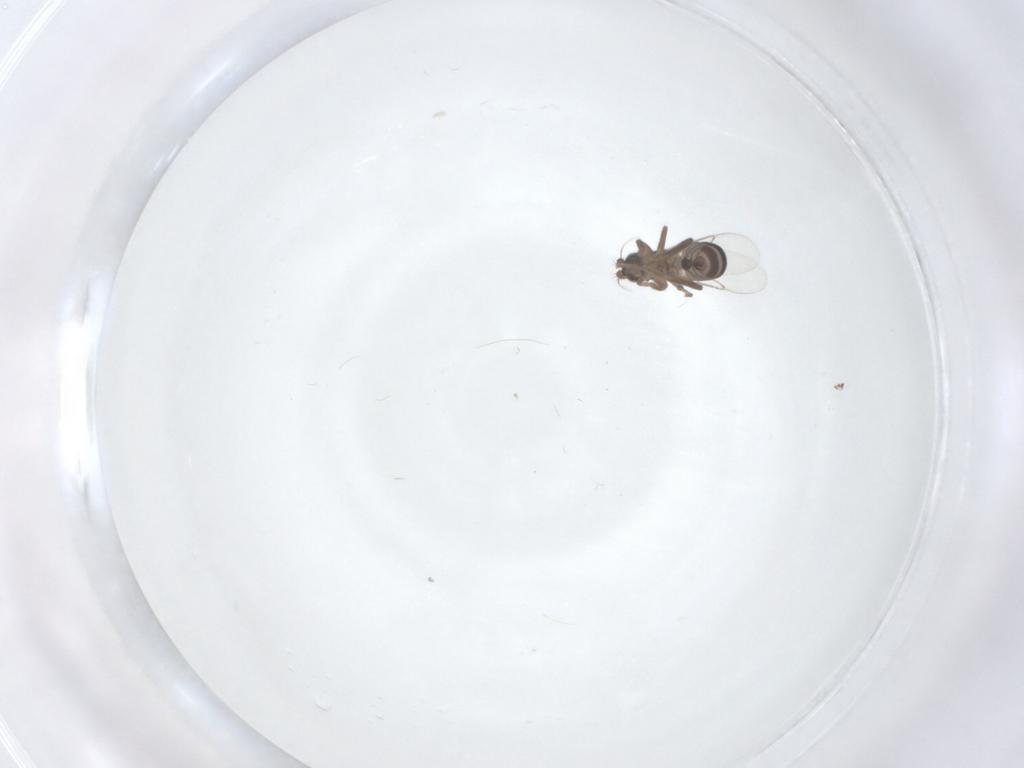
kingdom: Animalia
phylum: Arthropoda
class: Insecta
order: Diptera
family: Phoridae
